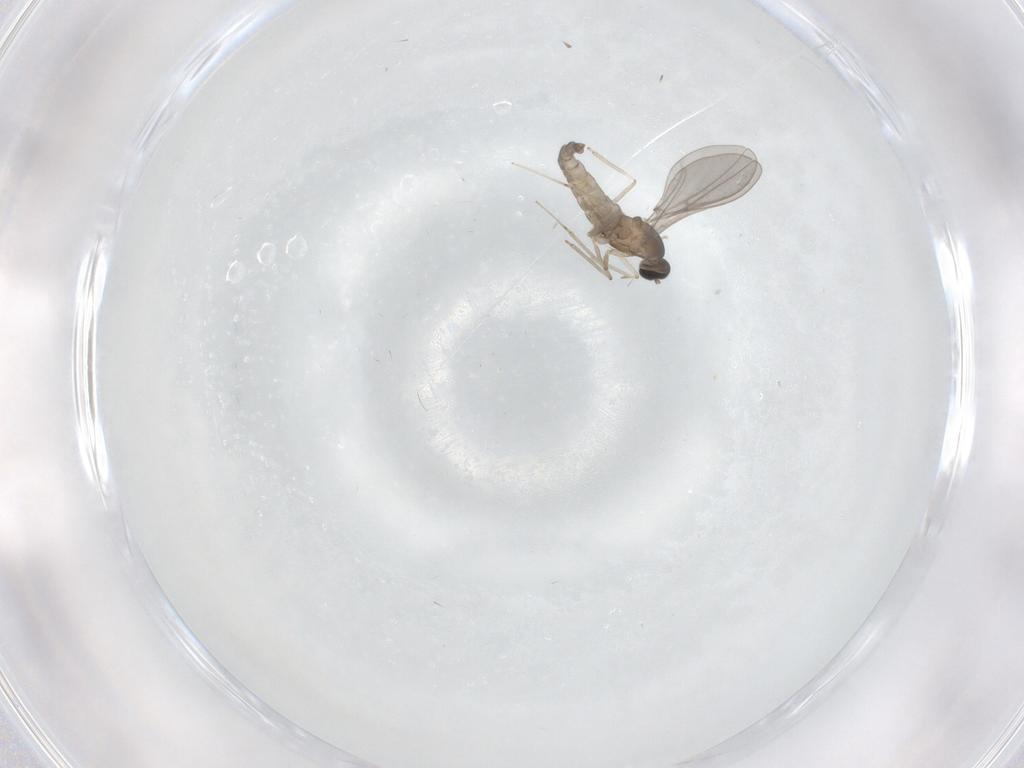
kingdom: Animalia
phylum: Arthropoda
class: Insecta
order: Diptera
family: Cecidomyiidae
